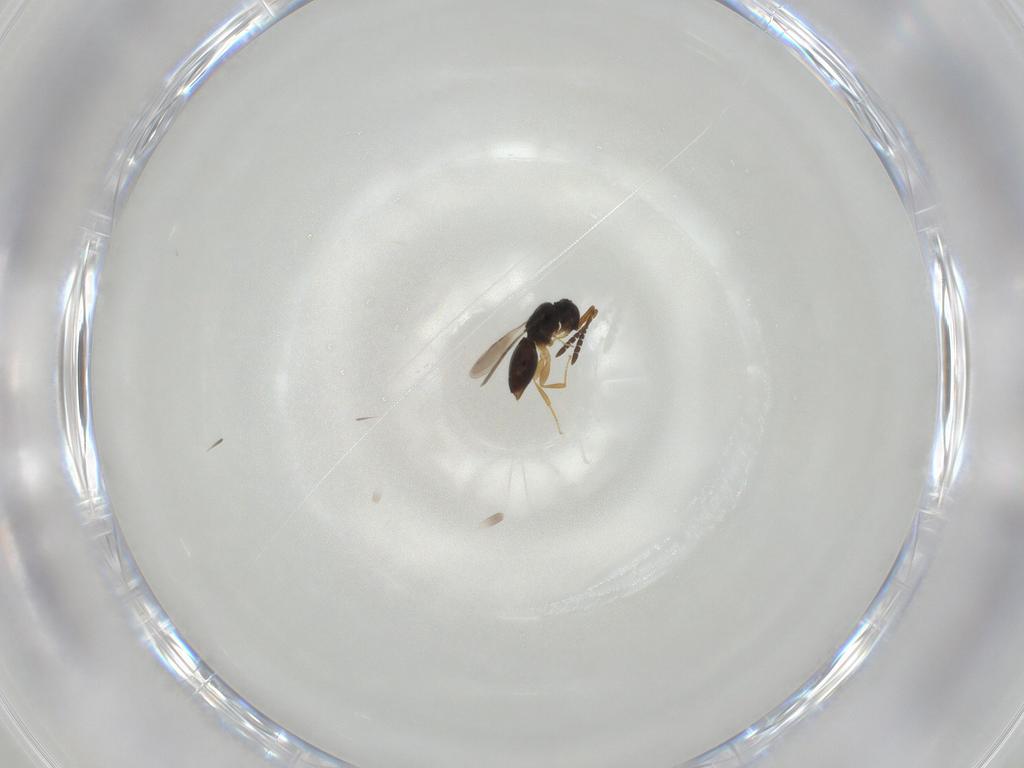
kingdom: Animalia
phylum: Arthropoda
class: Collembola
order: Entomobryomorpha
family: Entomobryidae
